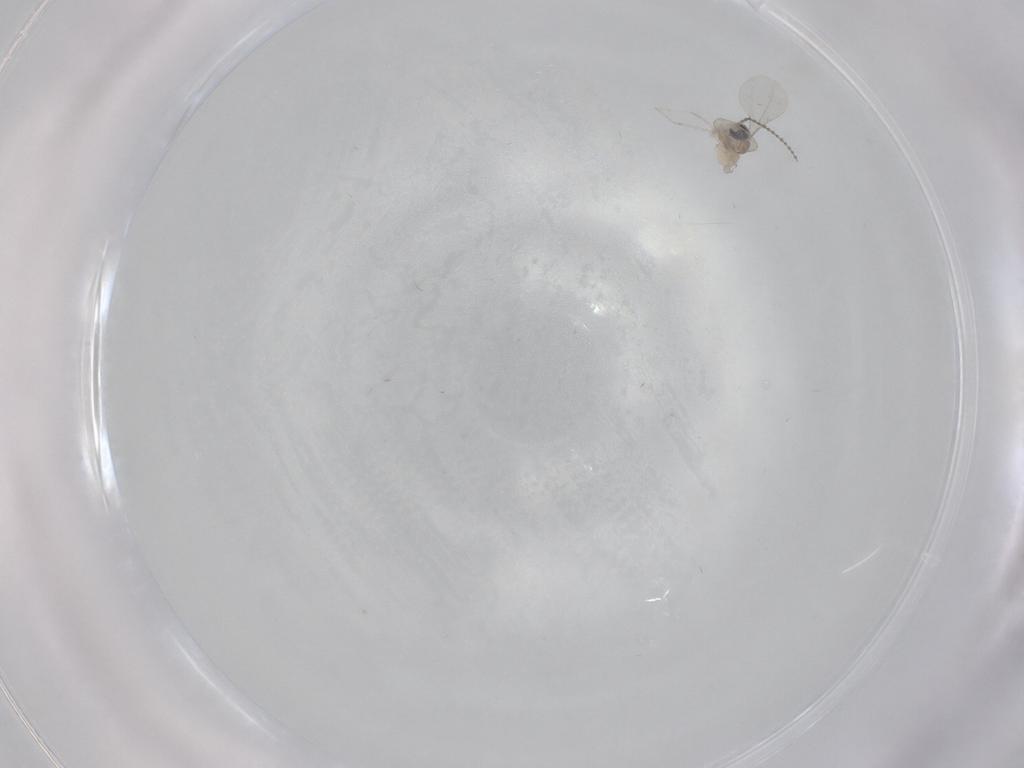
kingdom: Animalia
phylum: Arthropoda
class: Insecta
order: Diptera
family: Cecidomyiidae
